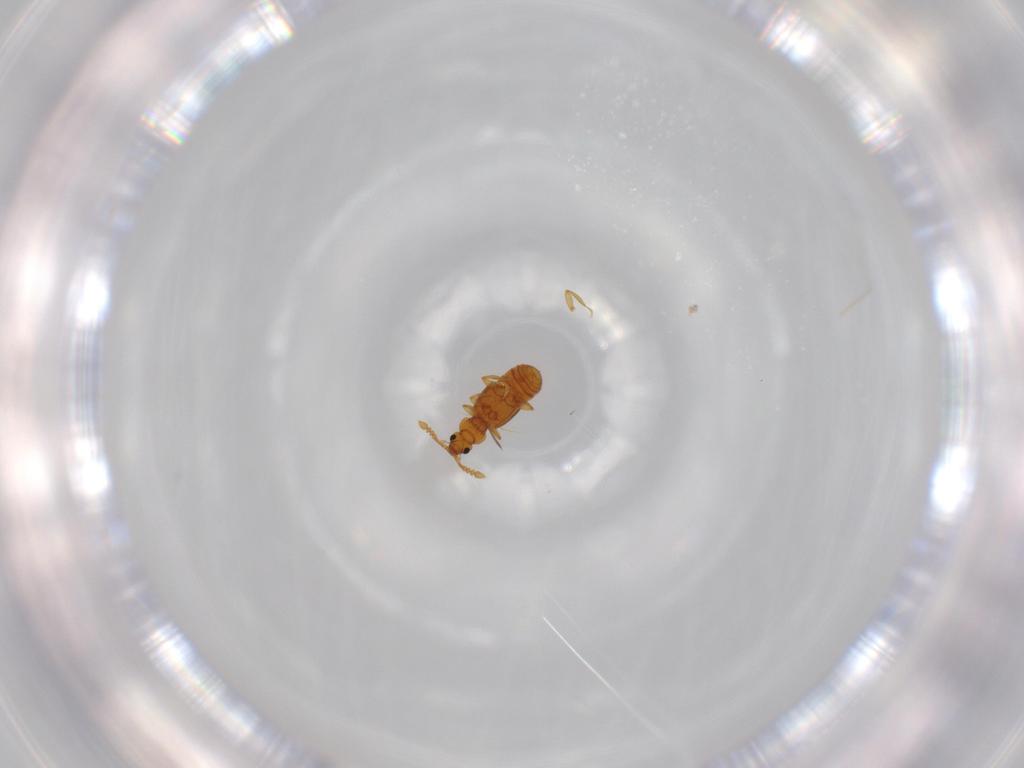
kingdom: Animalia
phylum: Arthropoda
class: Insecta
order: Coleoptera
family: Staphylinidae
